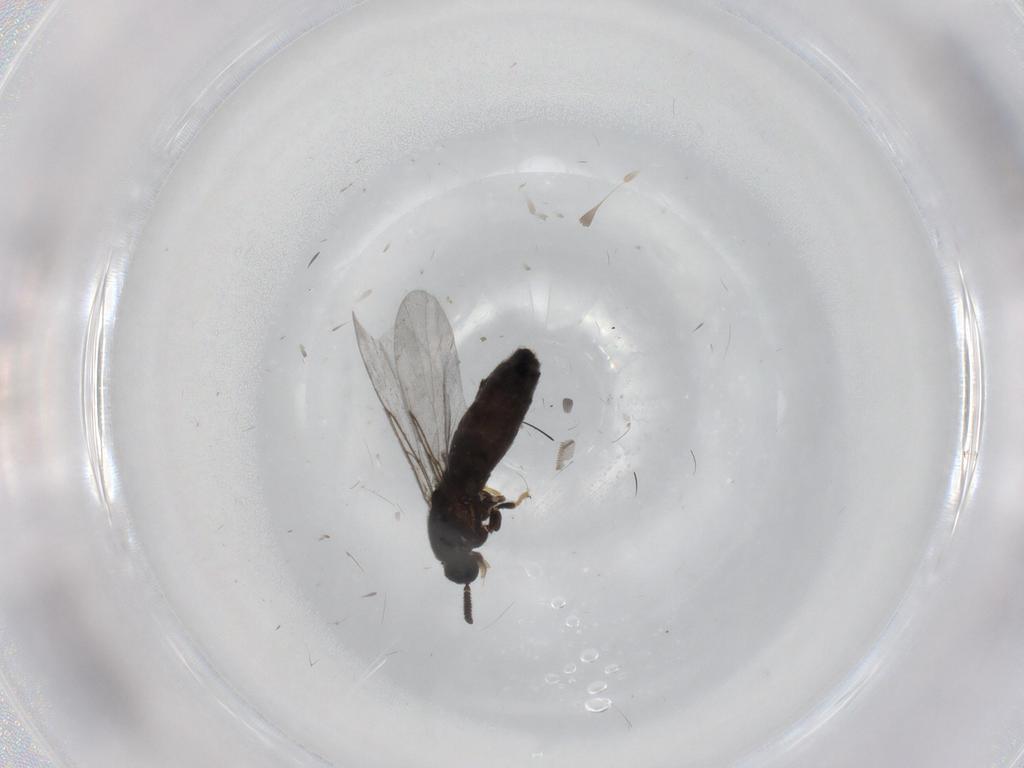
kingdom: Animalia
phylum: Arthropoda
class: Insecta
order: Diptera
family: Scatopsidae
